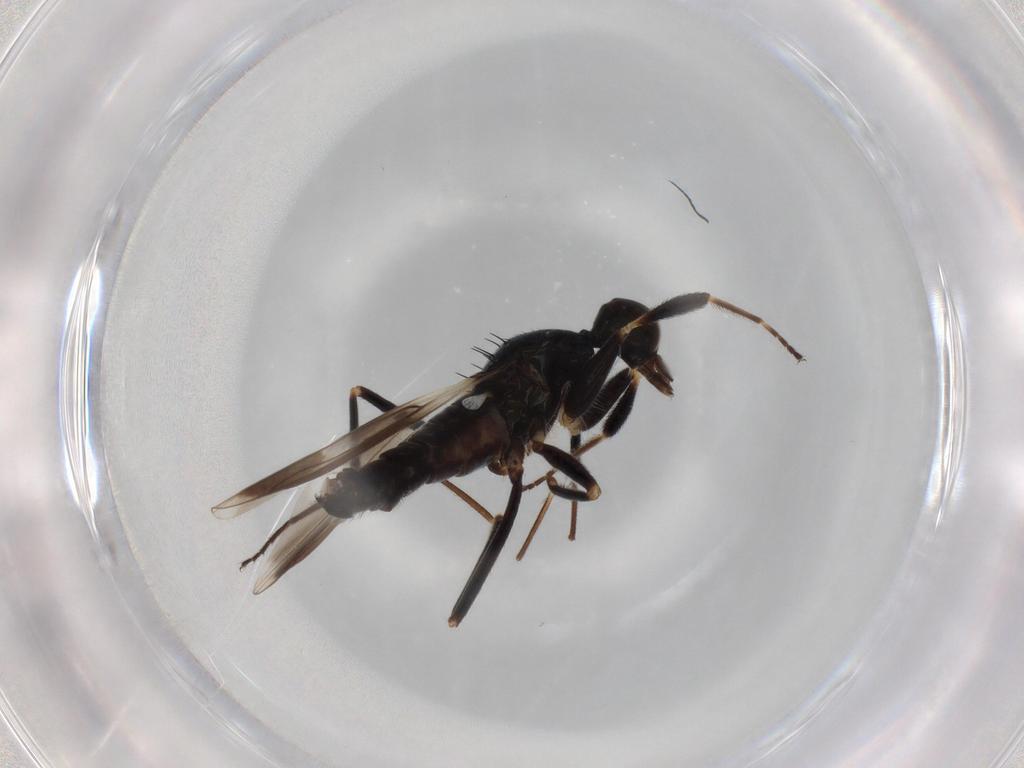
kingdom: Animalia
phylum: Arthropoda
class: Insecta
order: Diptera
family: Hybotidae
